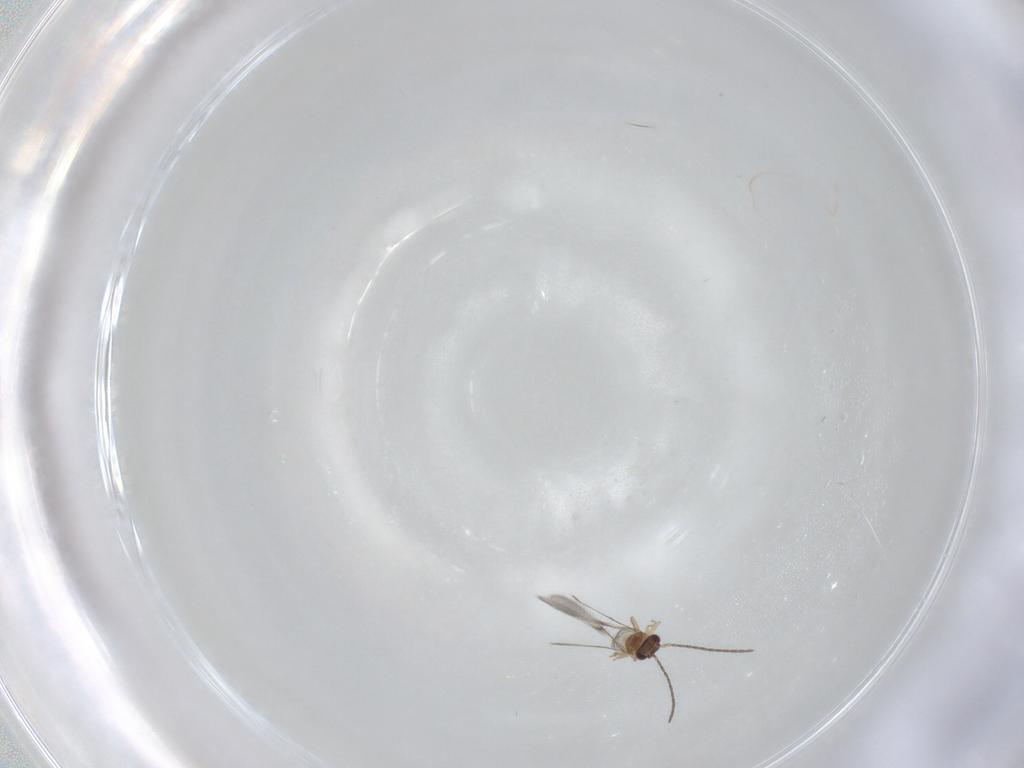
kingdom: Animalia
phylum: Arthropoda
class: Insecta
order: Hymenoptera
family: Mymaridae
